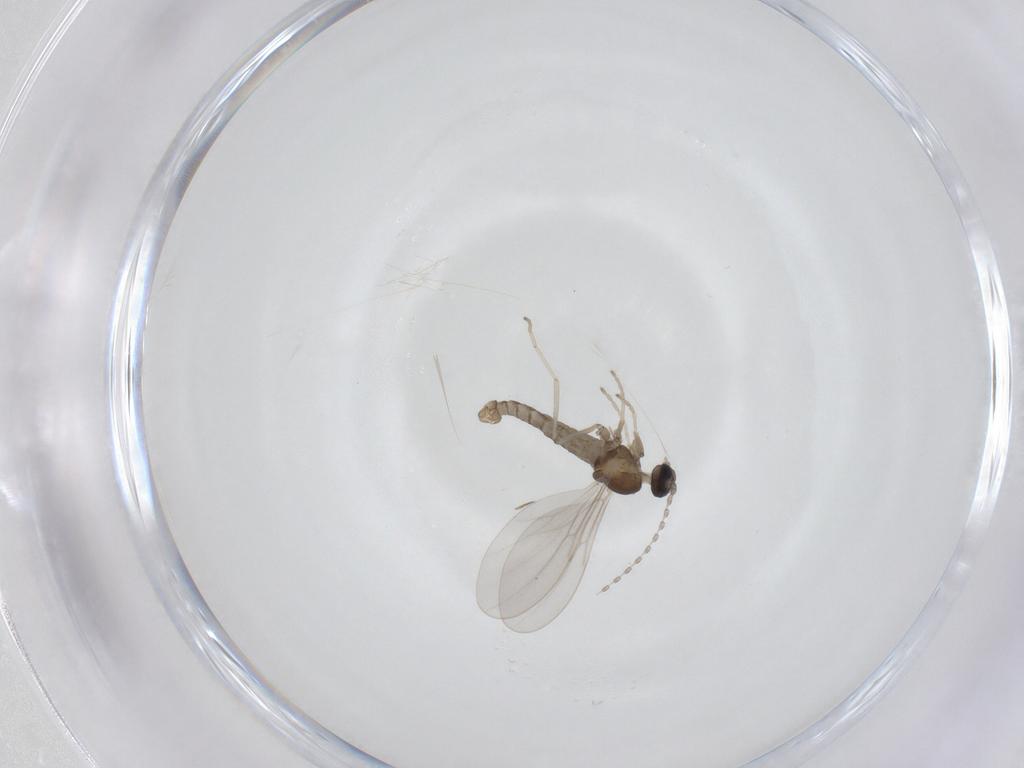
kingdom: Animalia
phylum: Arthropoda
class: Insecta
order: Diptera
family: Cecidomyiidae
